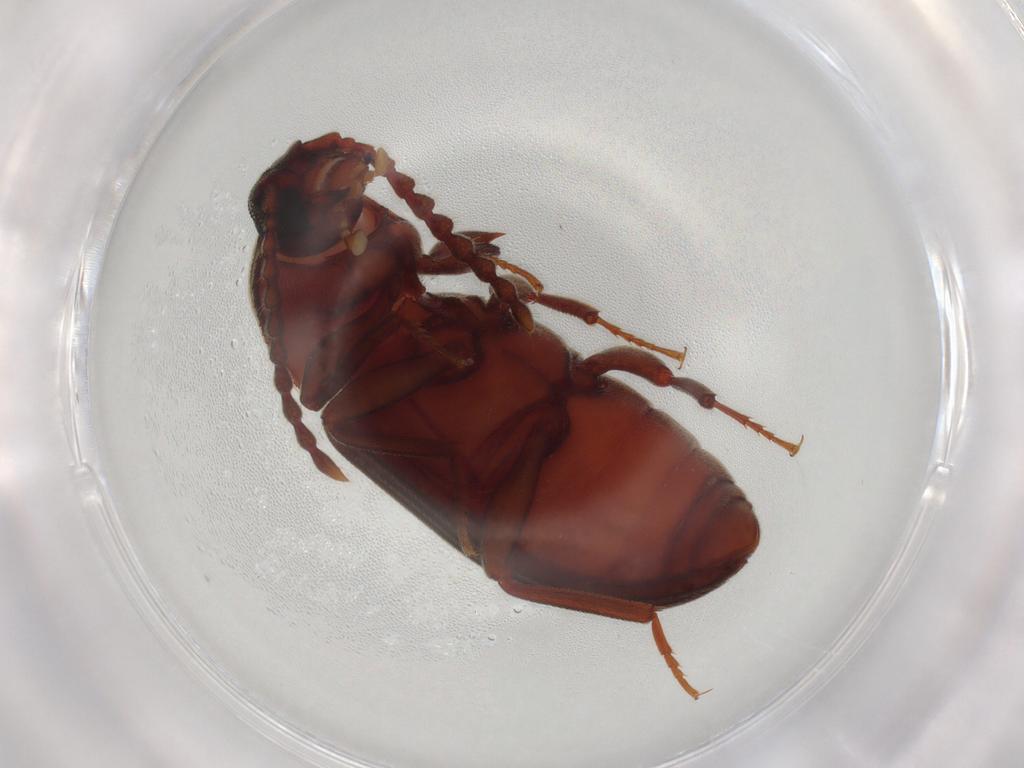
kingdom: Animalia
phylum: Arthropoda
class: Insecta
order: Coleoptera
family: Tenebrionidae
